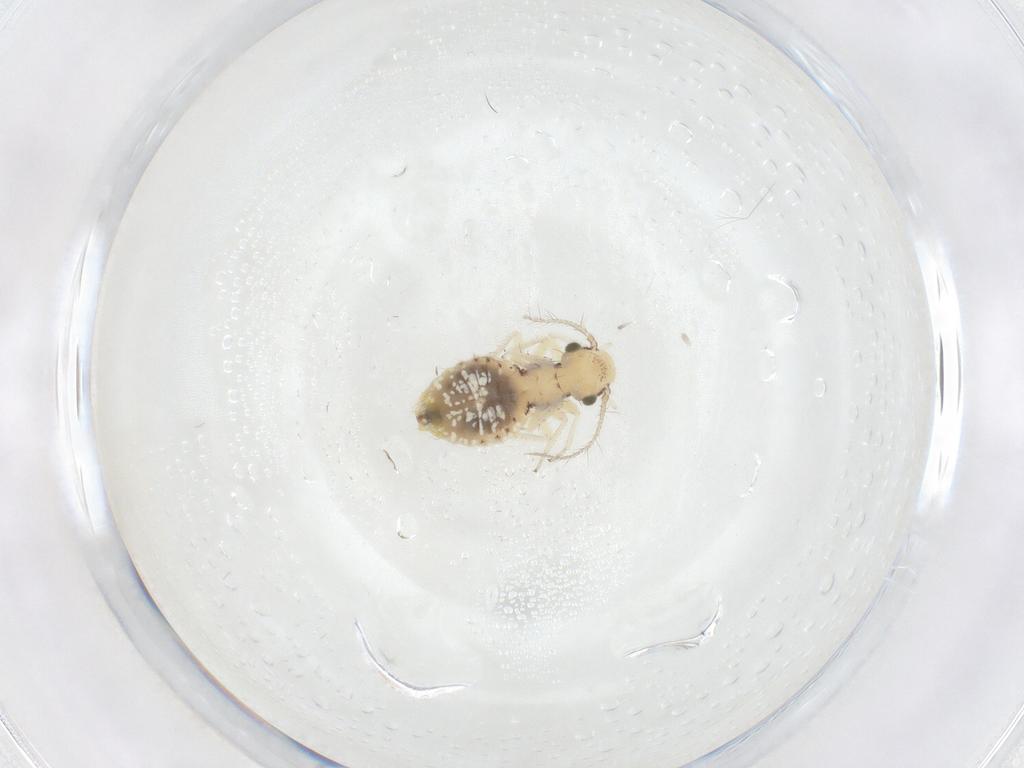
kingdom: Animalia
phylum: Arthropoda
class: Insecta
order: Psocodea
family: Pseudocaeciliidae
